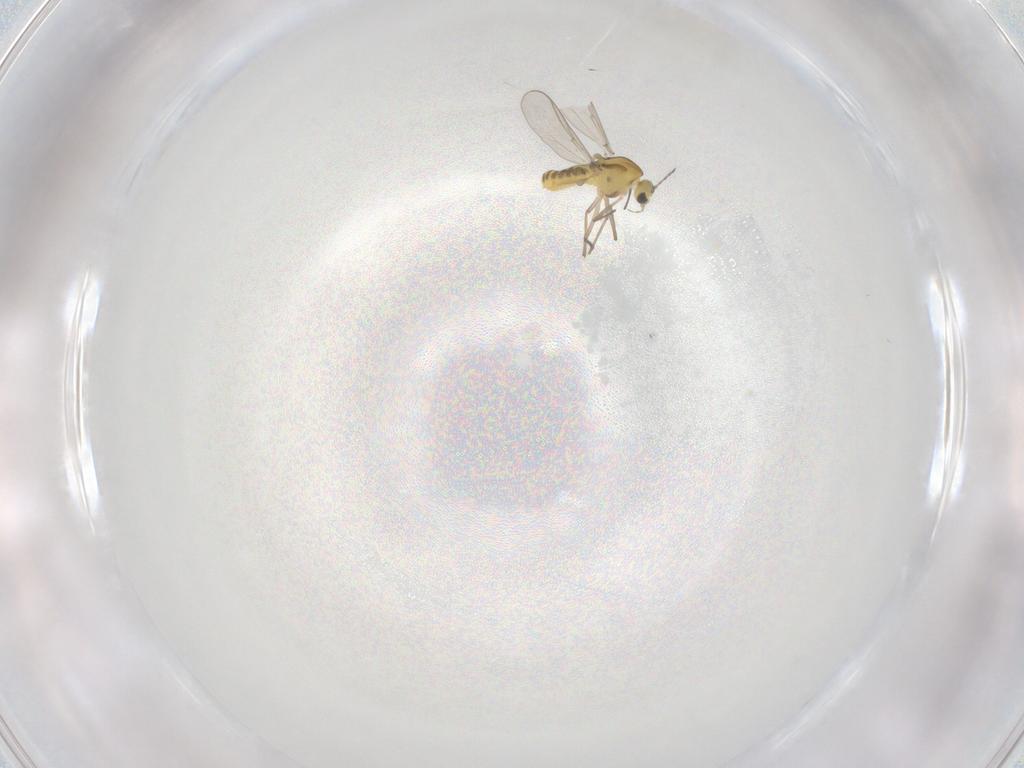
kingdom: Animalia
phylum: Arthropoda
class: Insecta
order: Diptera
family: Chironomidae
